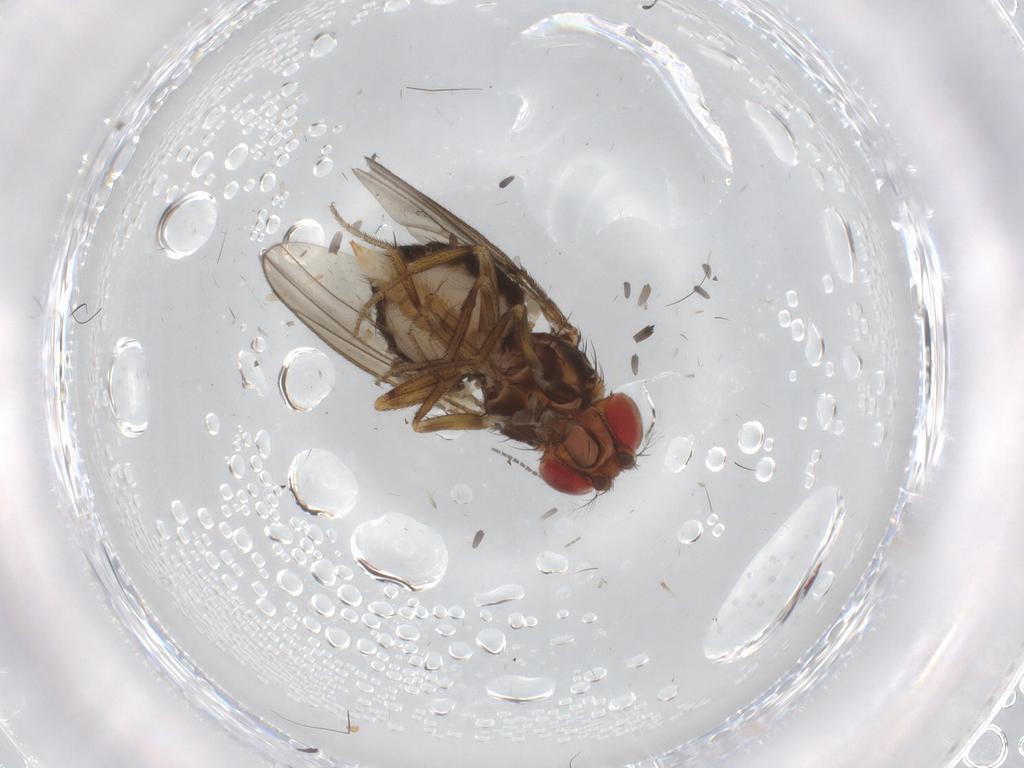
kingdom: Animalia
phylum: Arthropoda
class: Insecta
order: Diptera
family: Drosophilidae
